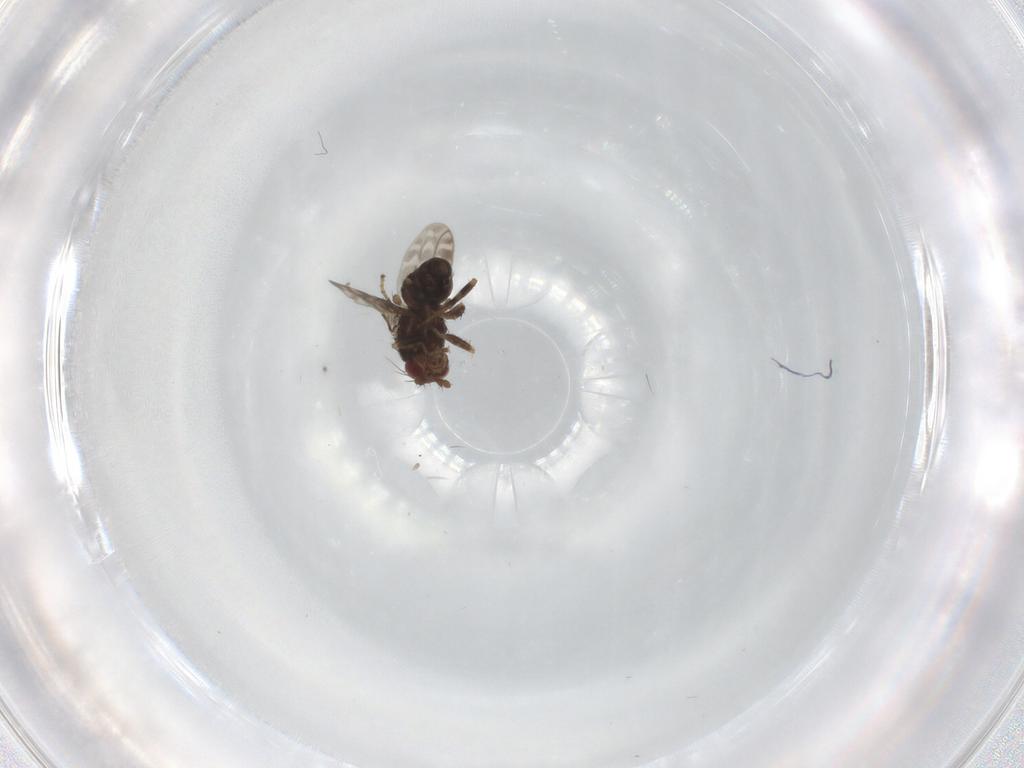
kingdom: Animalia
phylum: Arthropoda
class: Insecta
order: Diptera
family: Sphaeroceridae
